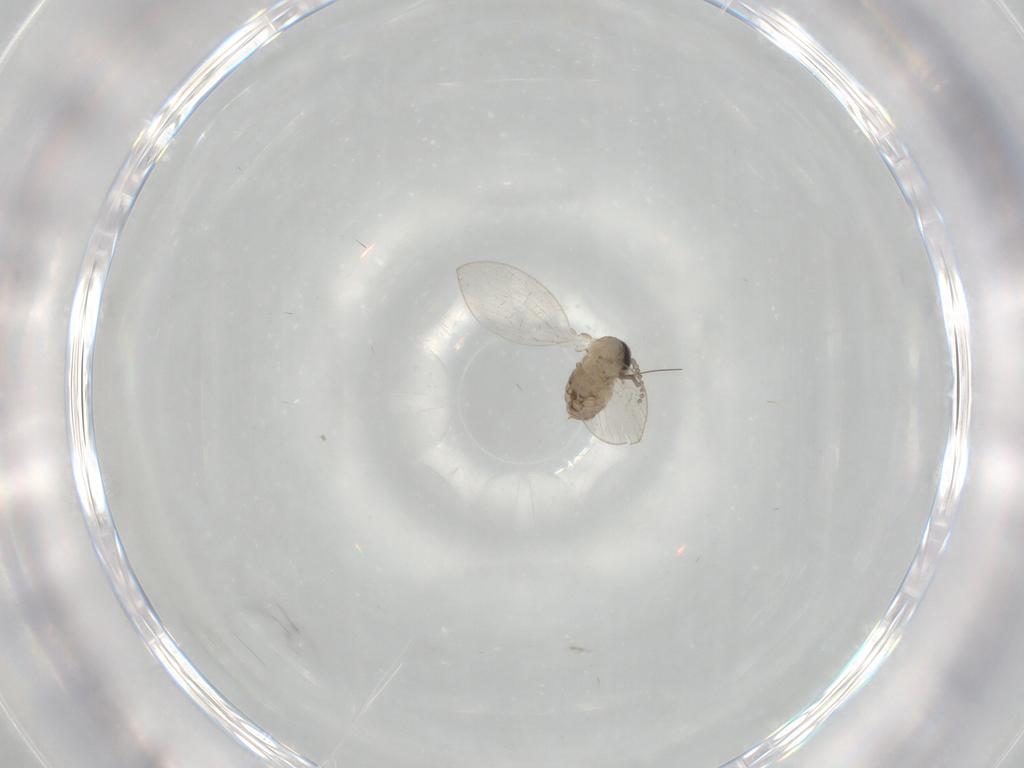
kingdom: Animalia
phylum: Arthropoda
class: Insecta
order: Diptera
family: Psychodidae
